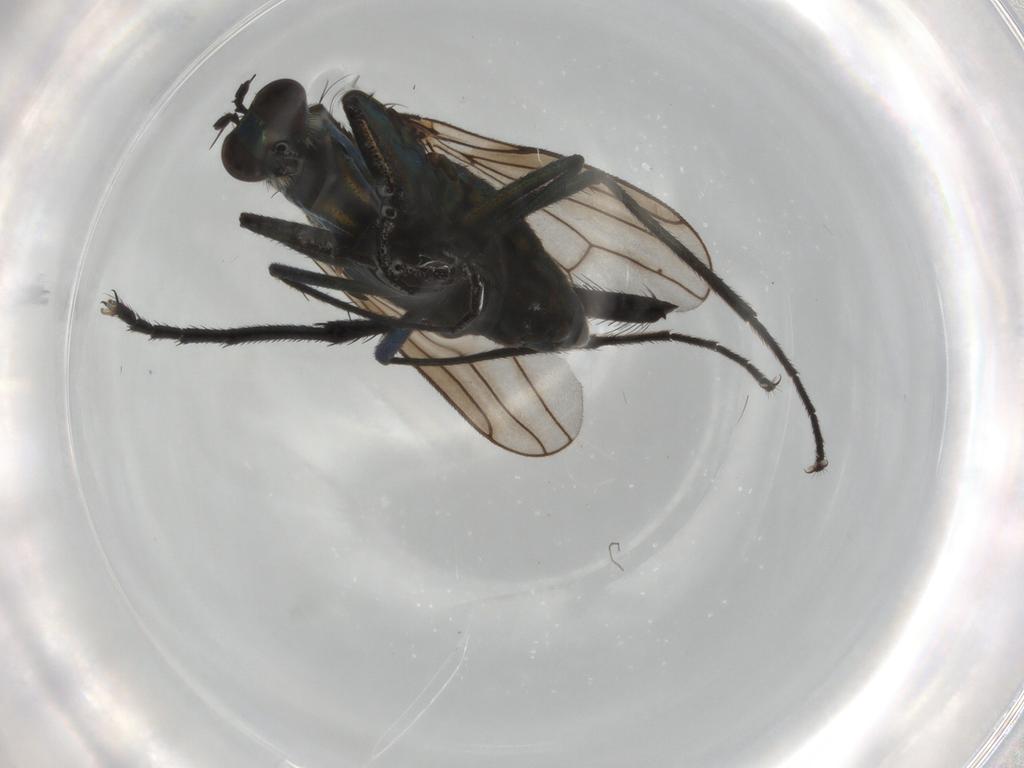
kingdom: Animalia
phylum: Arthropoda
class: Insecta
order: Diptera
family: Chironomidae
